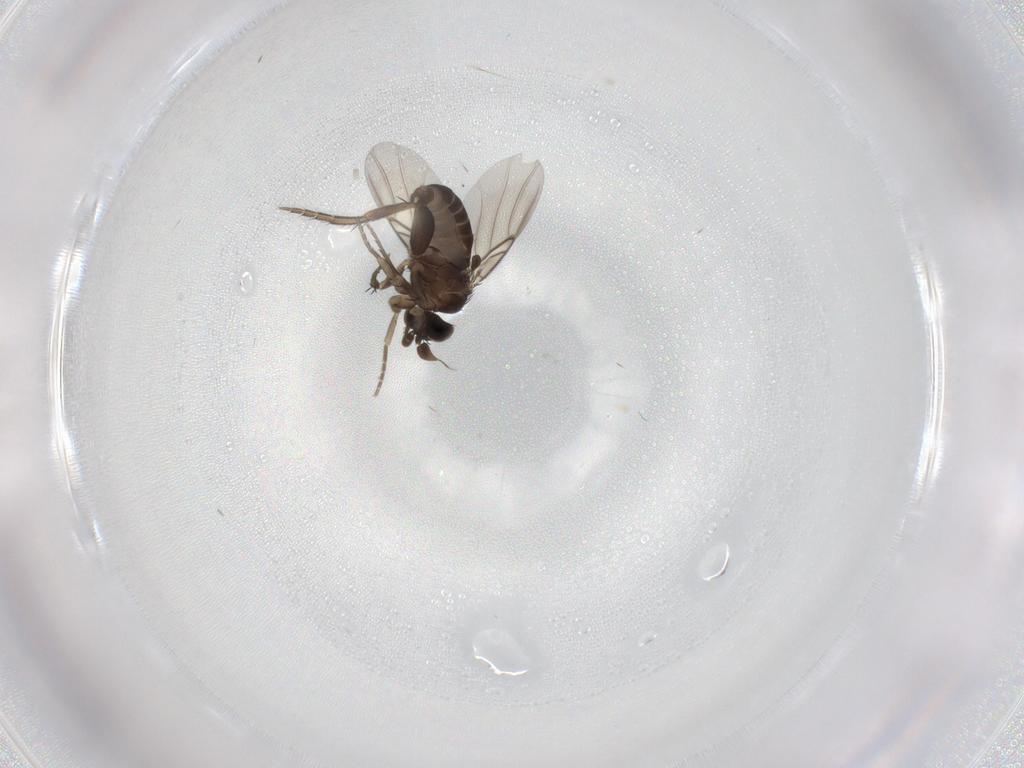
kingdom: Animalia
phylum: Arthropoda
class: Insecta
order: Diptera
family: Phoridae
